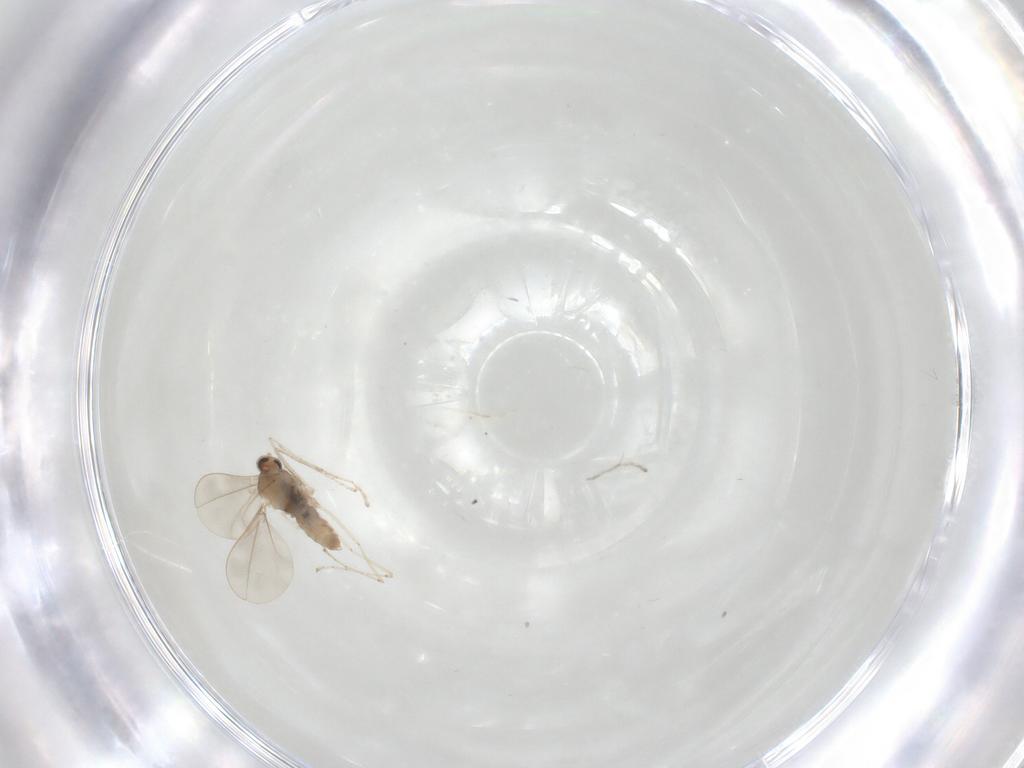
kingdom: Animalia
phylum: Arthropoda
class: Insecta
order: Diptera
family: Cecidomyiidae
